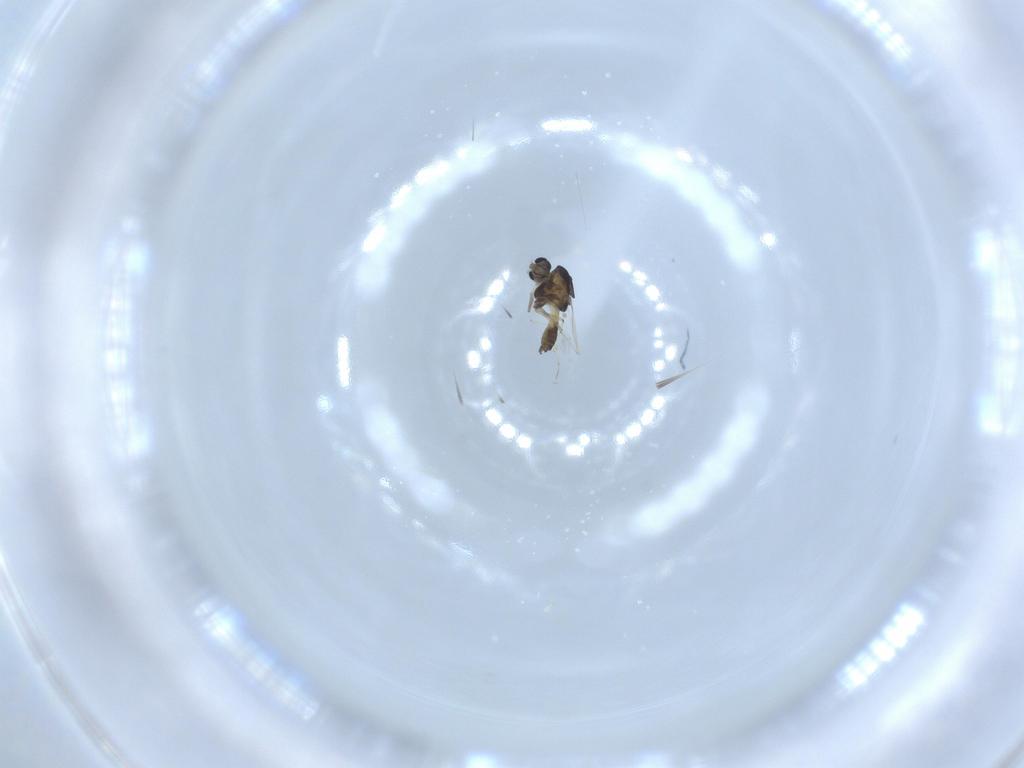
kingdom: Animalia
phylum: Arthropoda
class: Insecta
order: Diptera
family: Chironomidae
